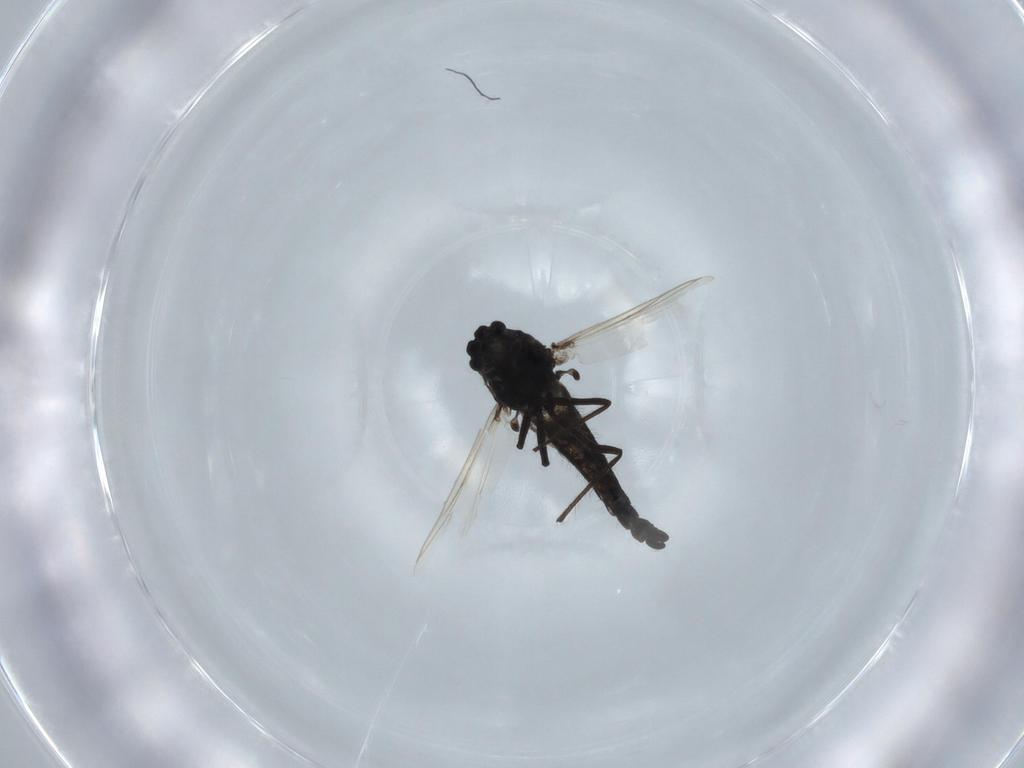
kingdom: Animalia
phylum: Arthropoda
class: Insecta
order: Diptera
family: Chironomidae
